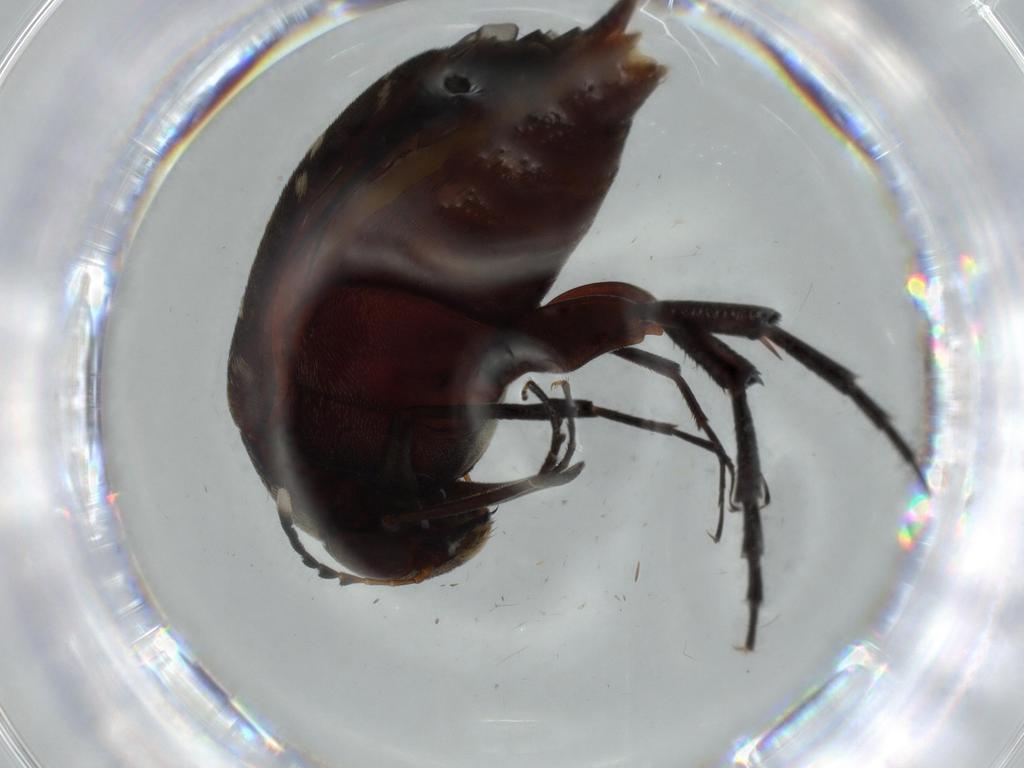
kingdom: Animalia
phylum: Arthropoda
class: Insecta
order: Coleoptera
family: Mordellidae
